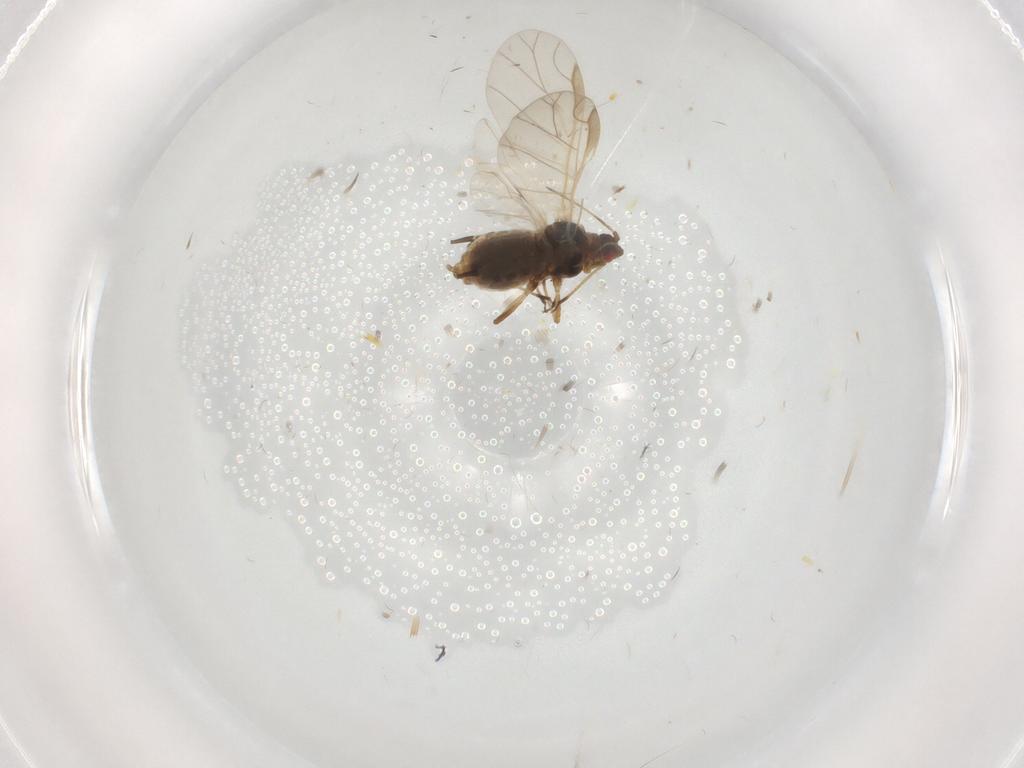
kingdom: Animalia
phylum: Arthropoda
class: Insecta
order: Hemiptera
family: Aphididae
